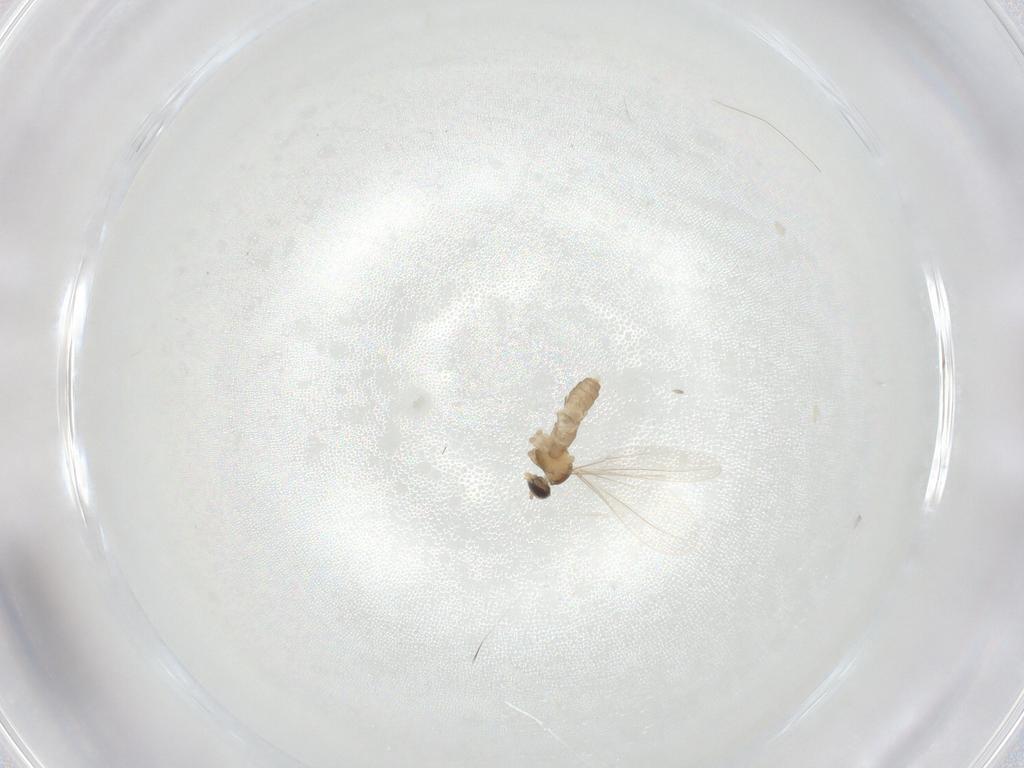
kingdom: Animalia
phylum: Arthropoda
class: Insecta
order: Diptera
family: Cecidomyiidae
